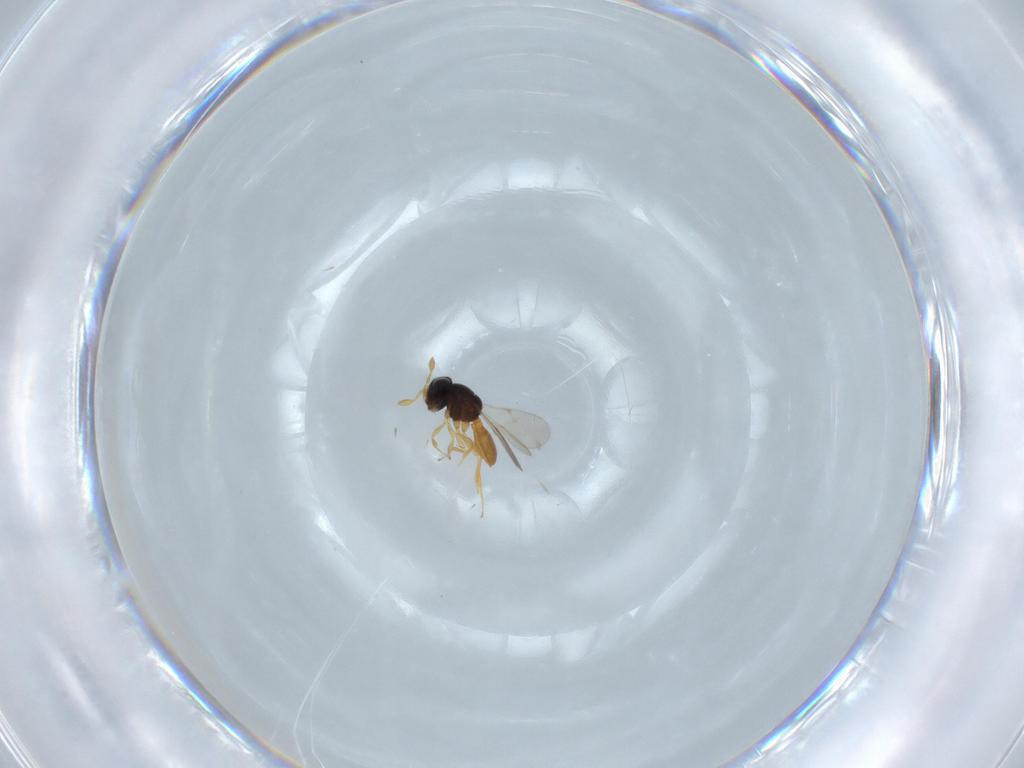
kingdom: Animalia
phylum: Arthropoda
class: Insecta
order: Hymenoptera
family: Scelionidae
